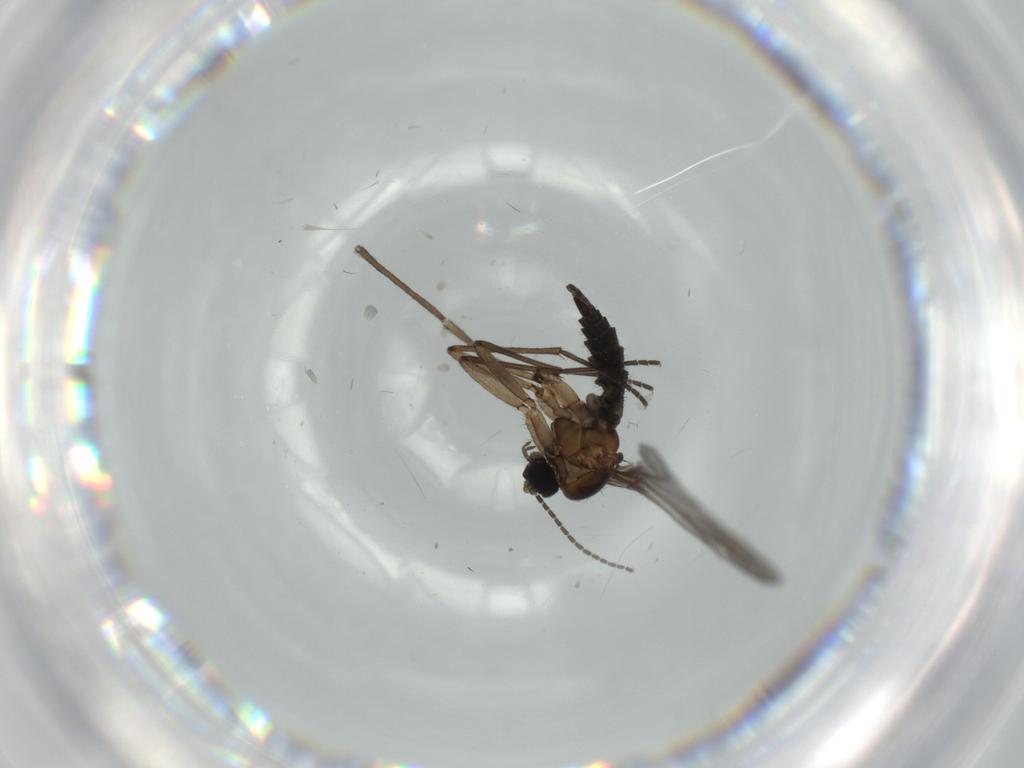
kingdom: Animalia
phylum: Arthropoda
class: Insecta
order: Diptera
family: Sciaridae
